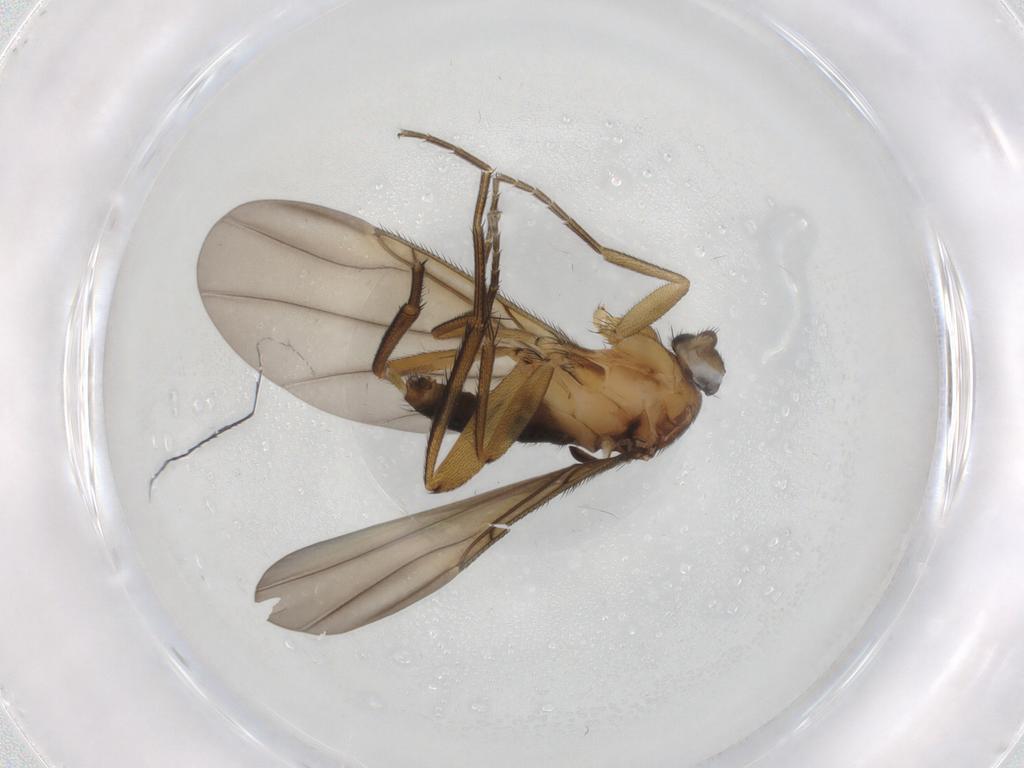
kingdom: Animalia
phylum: Arthropoda
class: Insecta
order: Diptera
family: Phoridae
